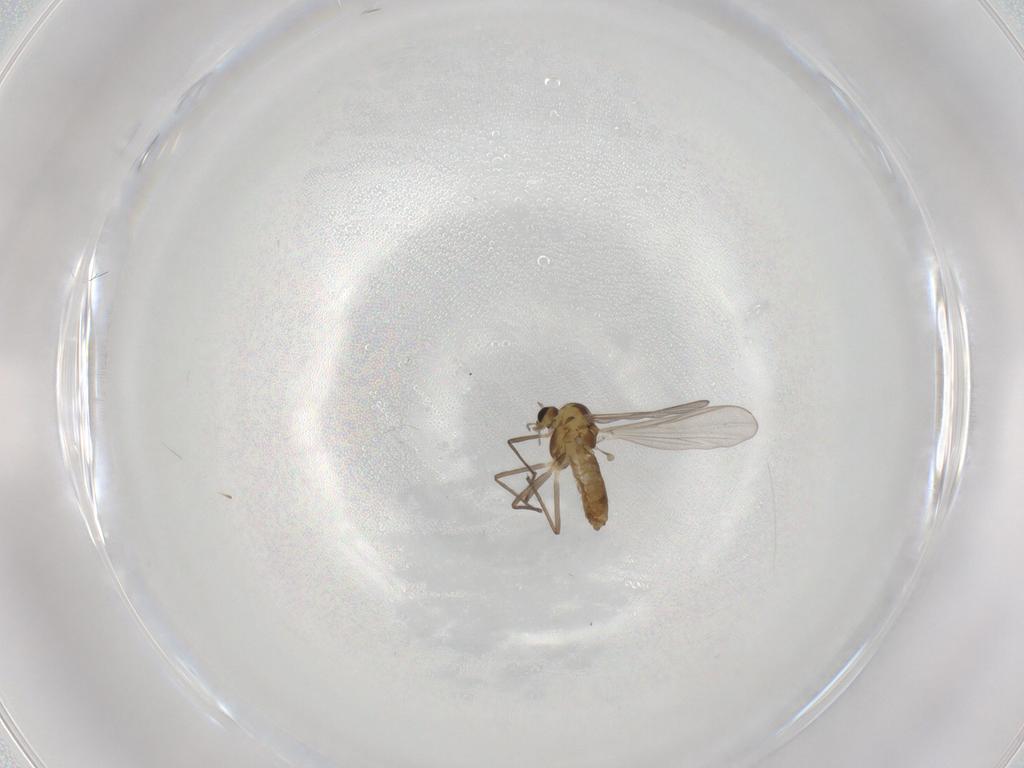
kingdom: Animalia
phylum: Arthropoda
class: Insecta
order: Diptera
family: Chironomidae
